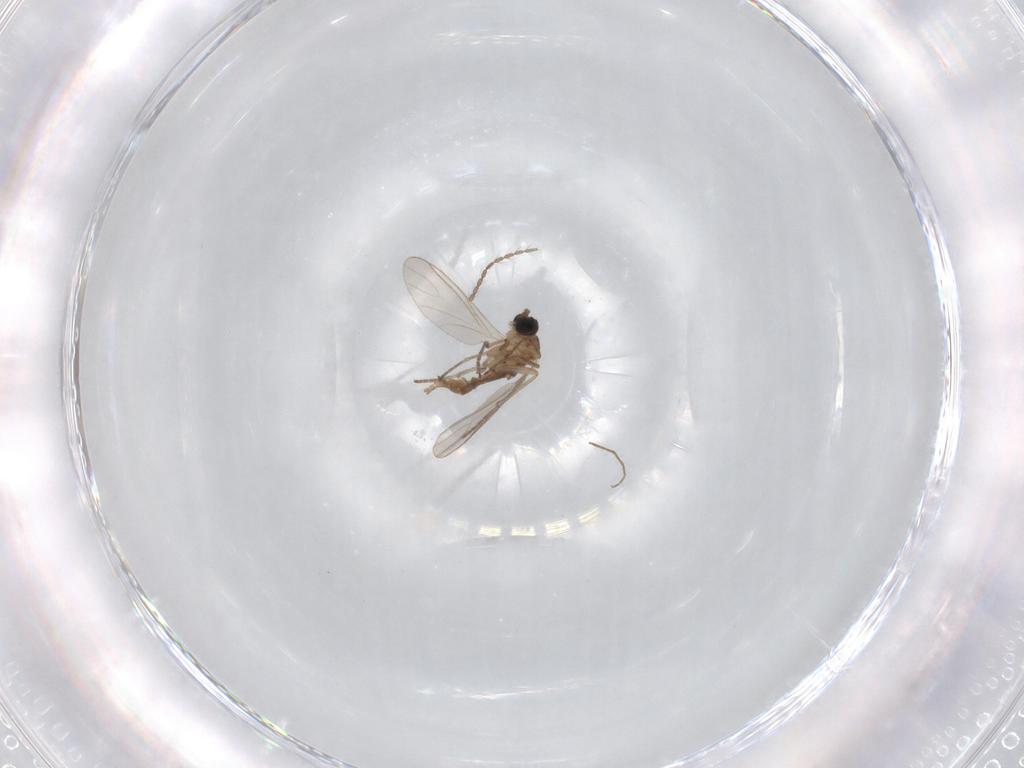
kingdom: Animalia
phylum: Arthropoda
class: Insecta
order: Diptera
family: Sciaridae
